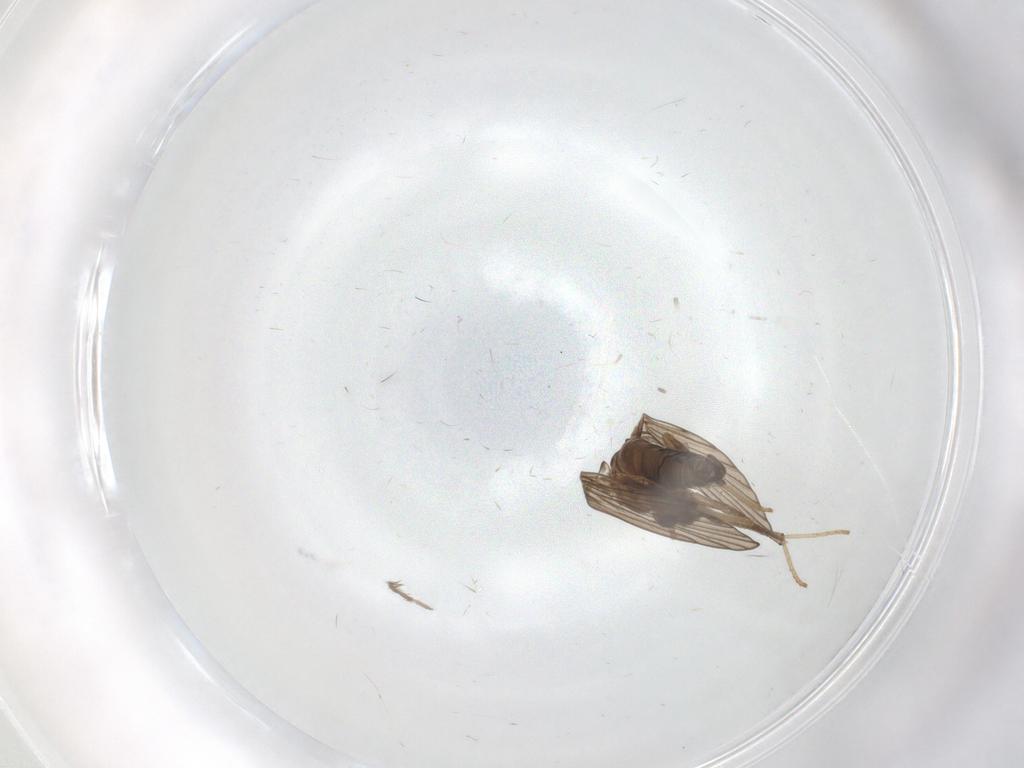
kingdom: Animalia
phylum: Arthropoda
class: Insecta
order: Diptera
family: Psychodidae
